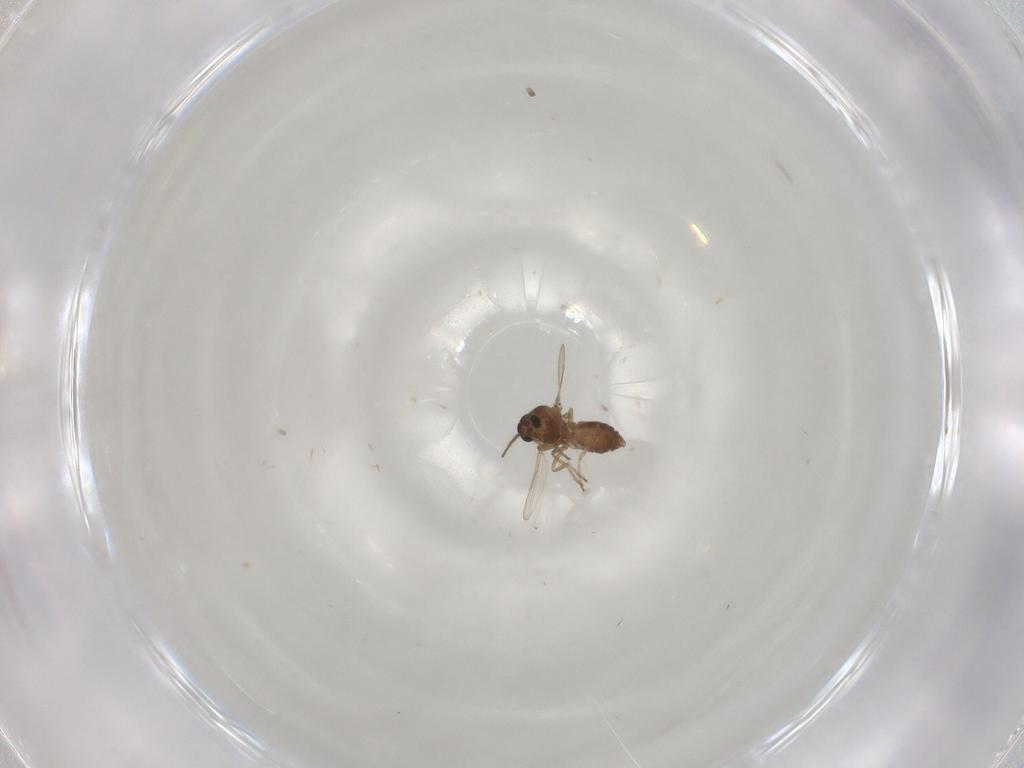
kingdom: Animalia
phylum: Arthropoda
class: Insecta
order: Diptera
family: Ceratopogonidae
